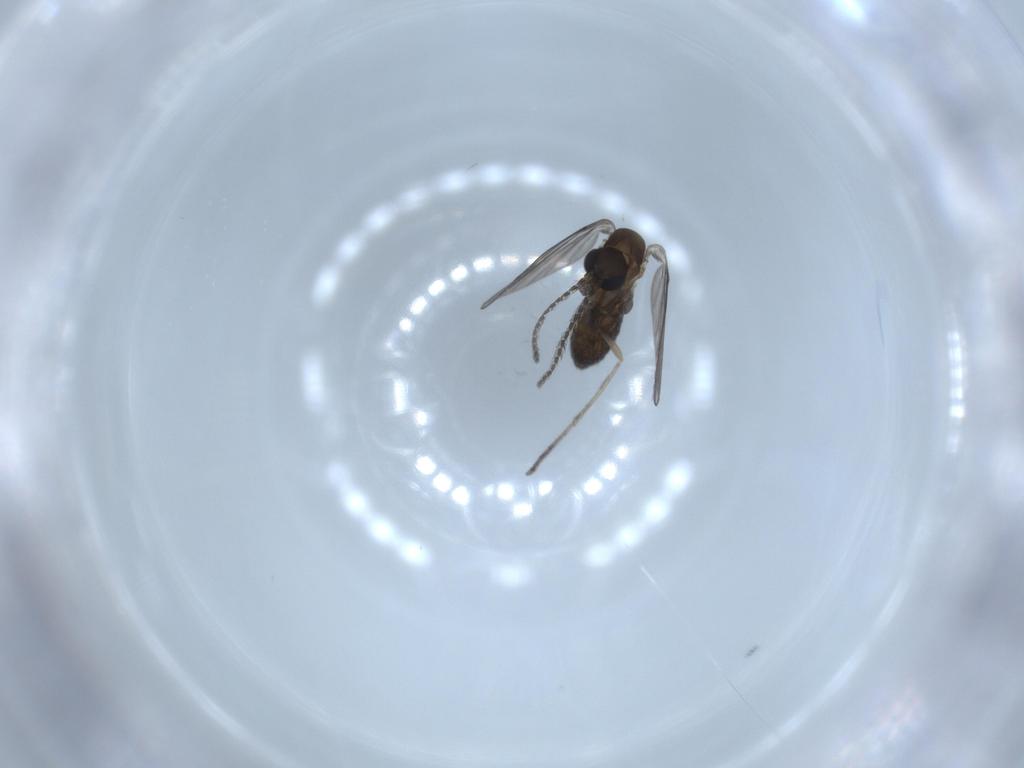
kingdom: Animalia
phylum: Arthropoda
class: Insecta
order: Diptera
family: Psychodidae
